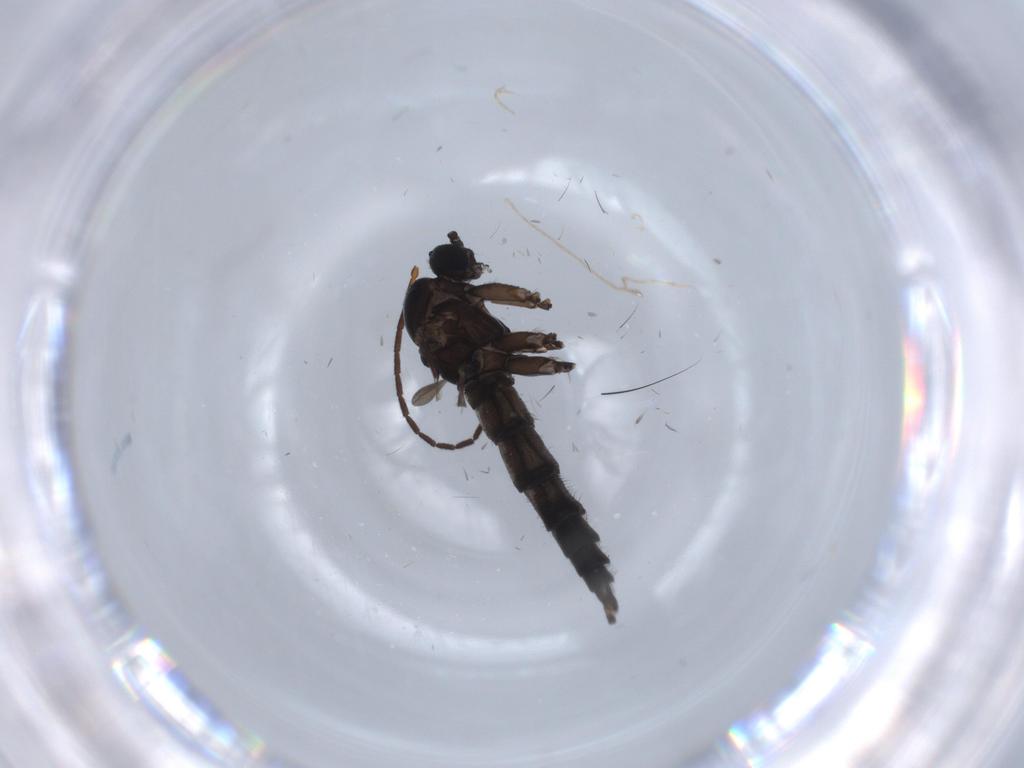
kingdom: Animalia
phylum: Arthropoda
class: Insecta
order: Diptera
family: Sciaridae
